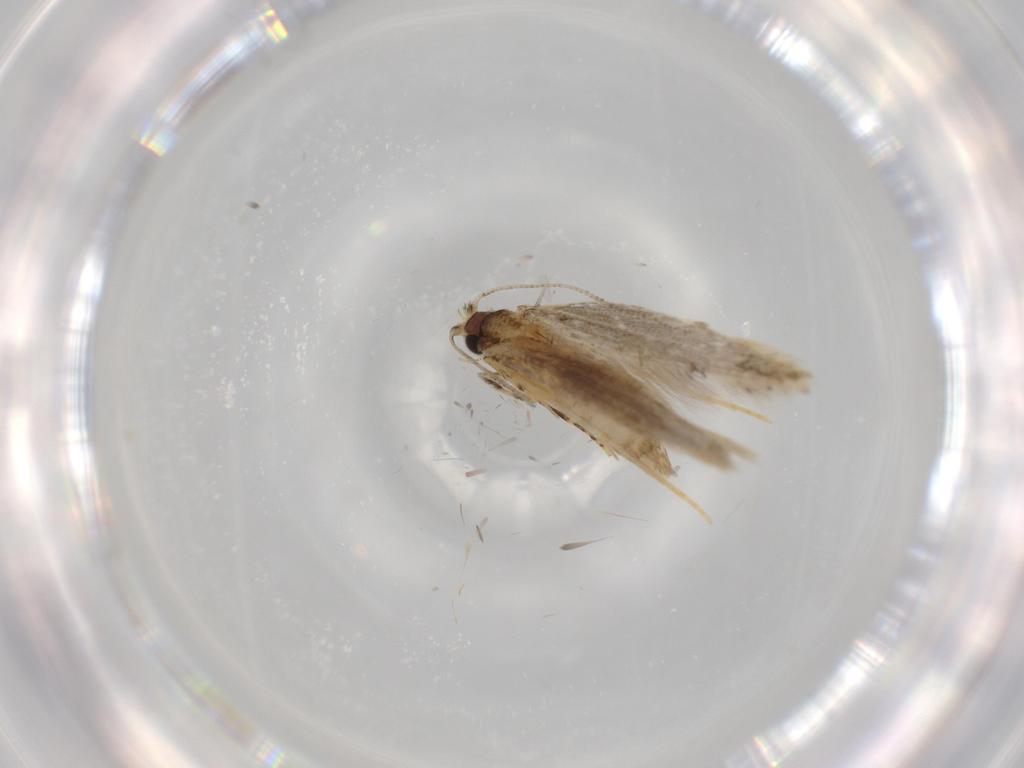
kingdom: Animalia
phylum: Arthropoda
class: Insecta
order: Lepidoptera
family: Tineidae
